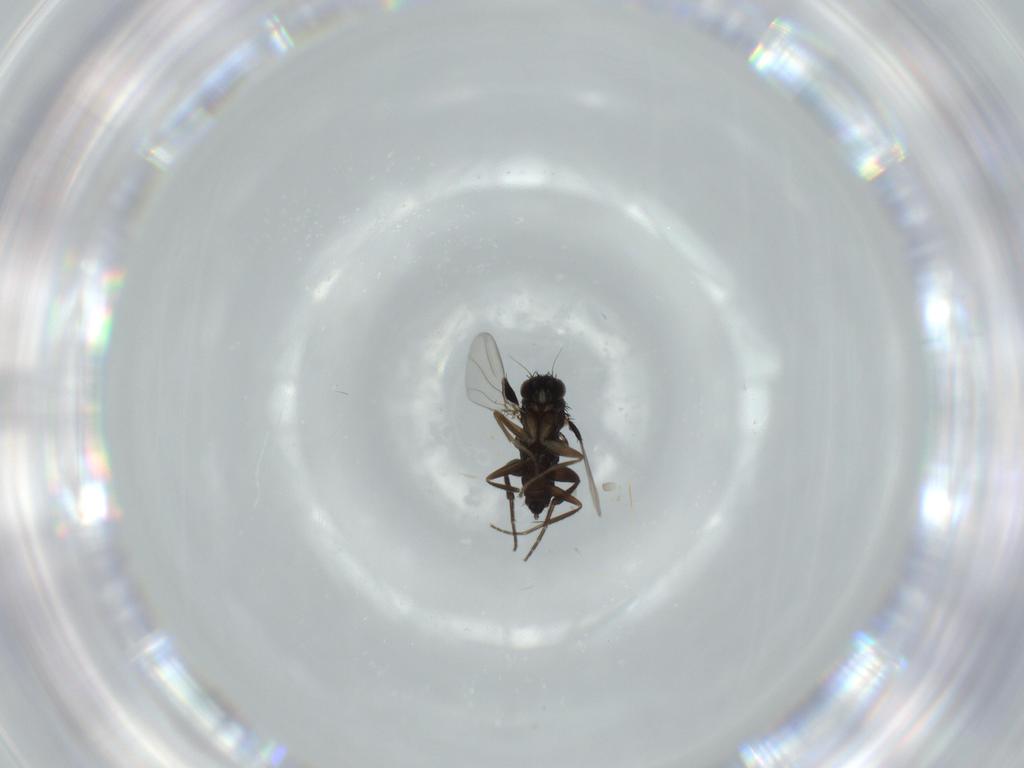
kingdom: Animalia
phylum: Arthropoda
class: Insecta
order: Diptera
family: Phoridae
